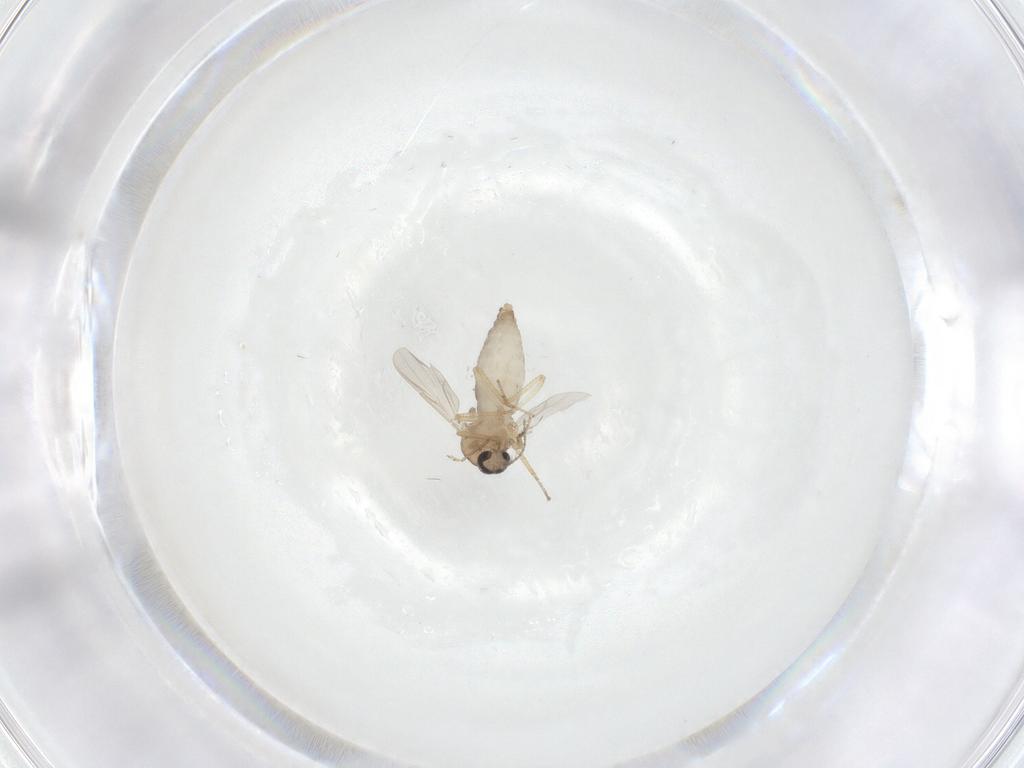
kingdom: Animalia
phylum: Arthropoda
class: Insecta
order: Diptera
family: Ceratopogonidae
